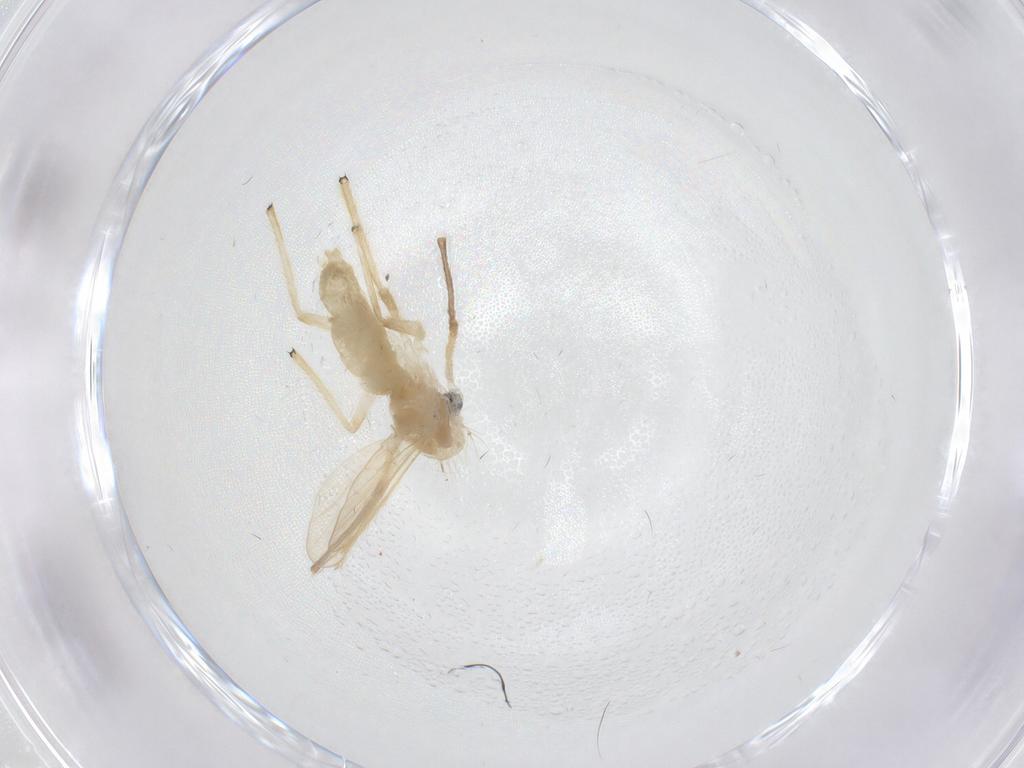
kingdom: Animalia
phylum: Arthropoda
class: Insecta
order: Diptera
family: Chironomidae
